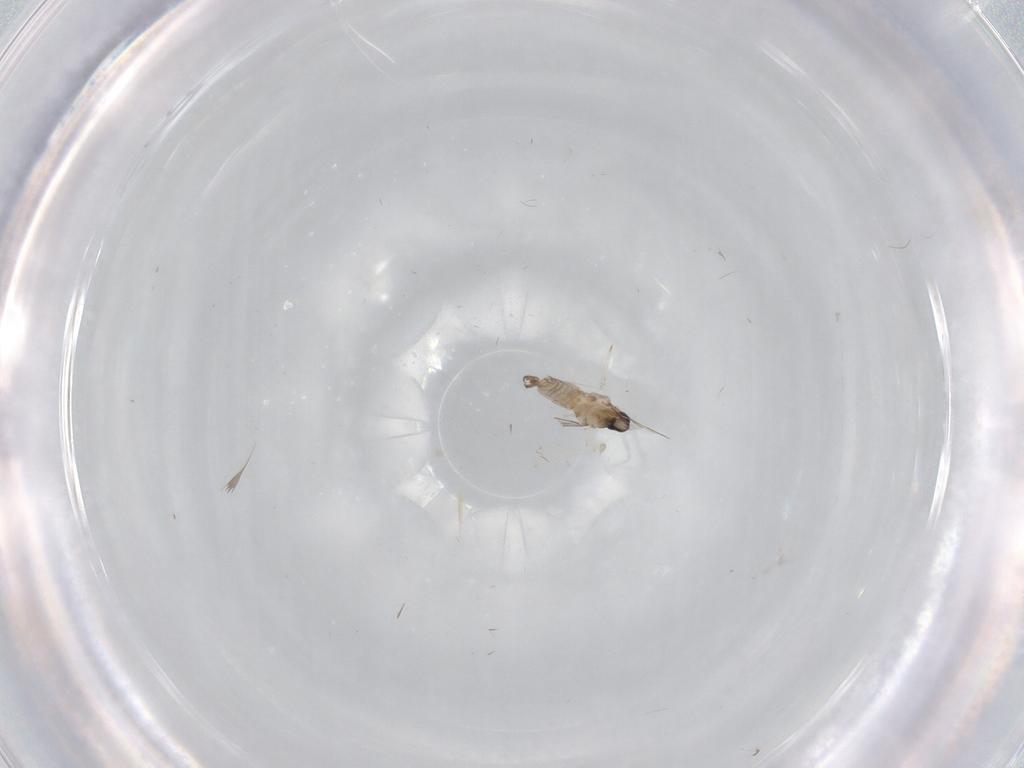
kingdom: Animalia
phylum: Arthropoda
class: Insecta
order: Diptera
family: Cecidomyiidae
